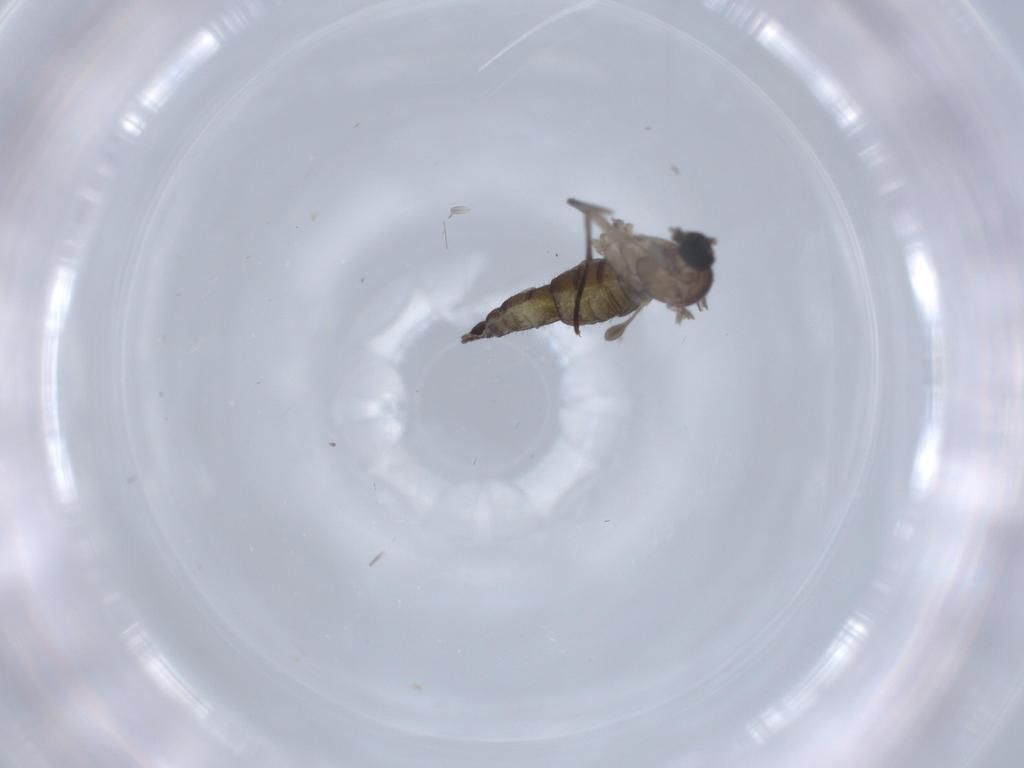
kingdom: Animalia
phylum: Arthropoda
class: Insecta
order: Diptera
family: Sciaridae
